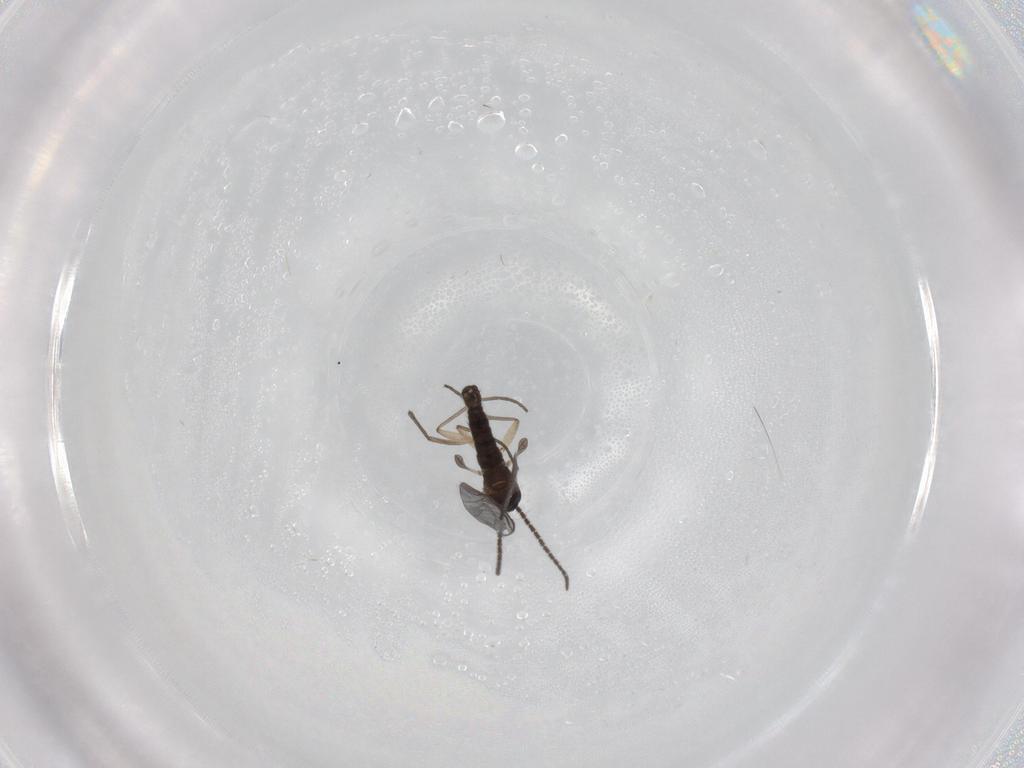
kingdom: Animalia
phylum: Arthropoda
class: Insecta
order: Diptera
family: Sciaridae
